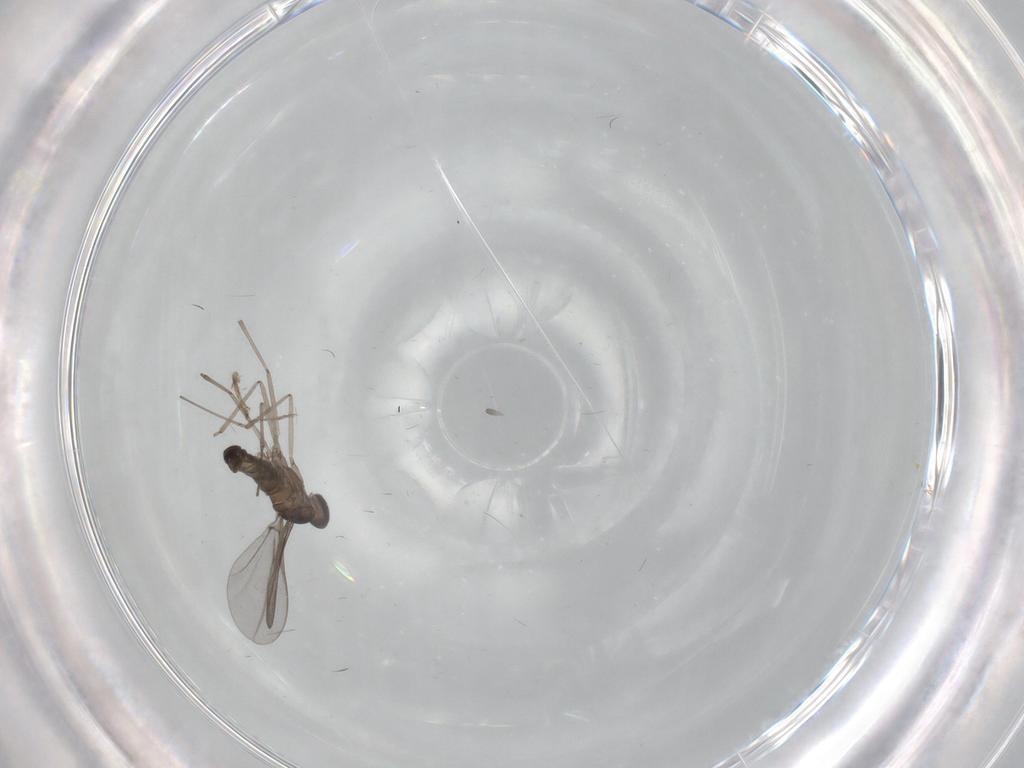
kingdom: Animalia
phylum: Arthropoda
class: Insecta
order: Diptera
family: Cecidomyiidae
